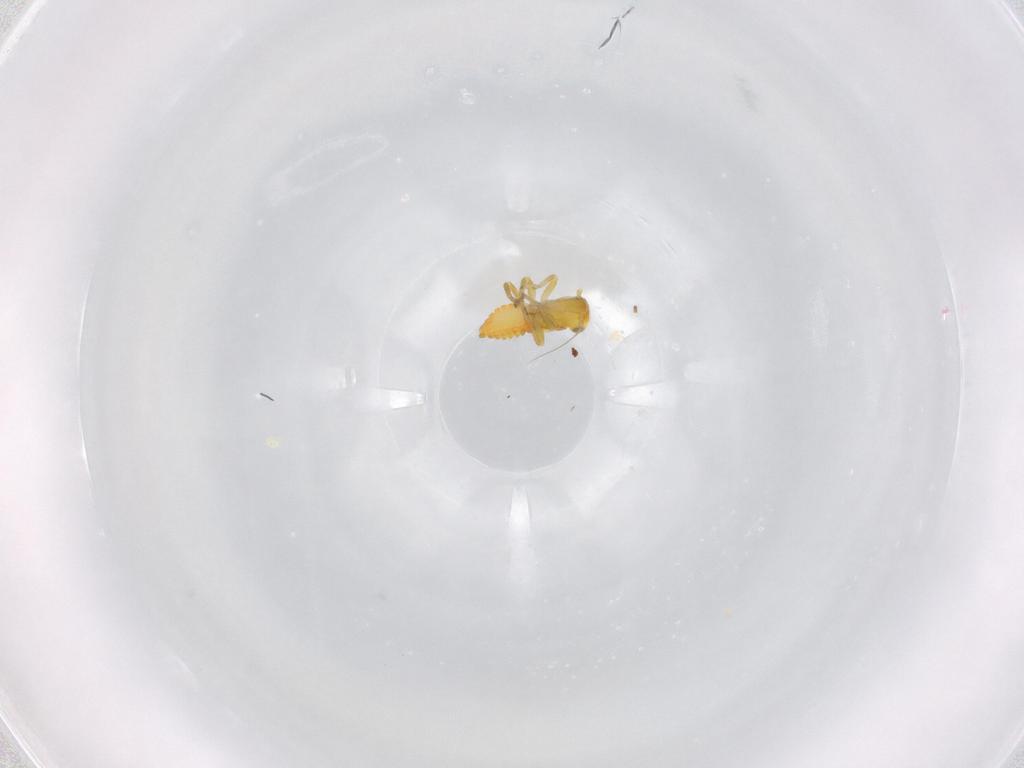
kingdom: Animalia
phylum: Arthropoda
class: Insecta
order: Hemiptera
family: Cicadellidae
